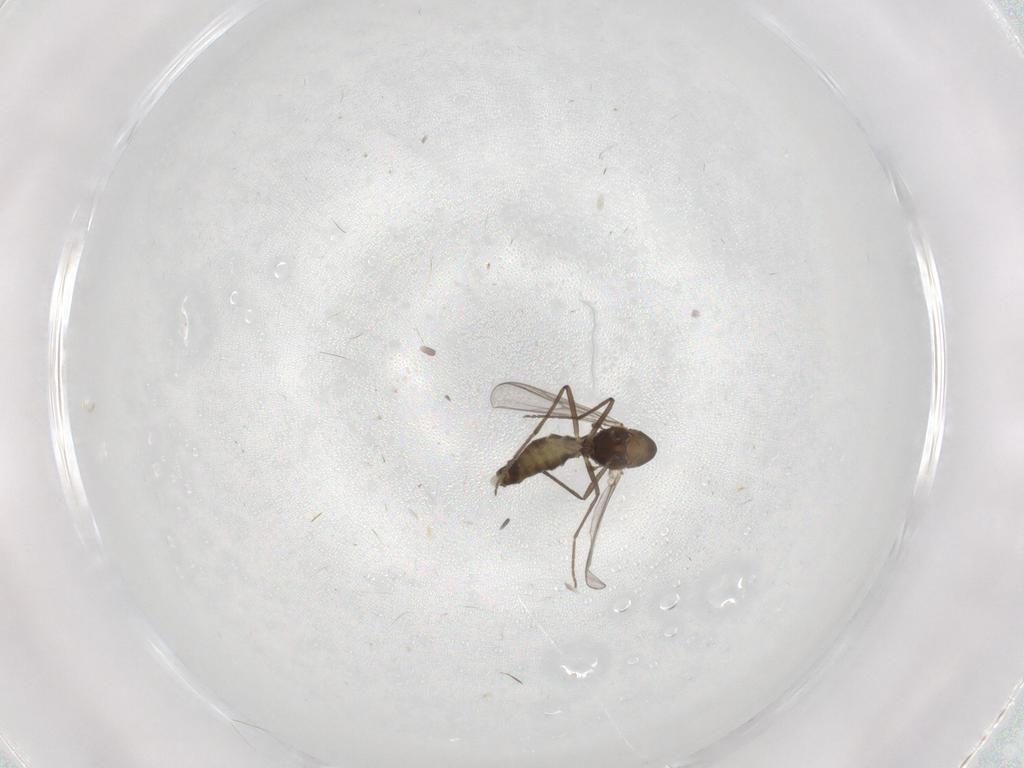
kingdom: Animalia
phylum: Arthropoda
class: Insecta
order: Diptera
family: Chironomidae
